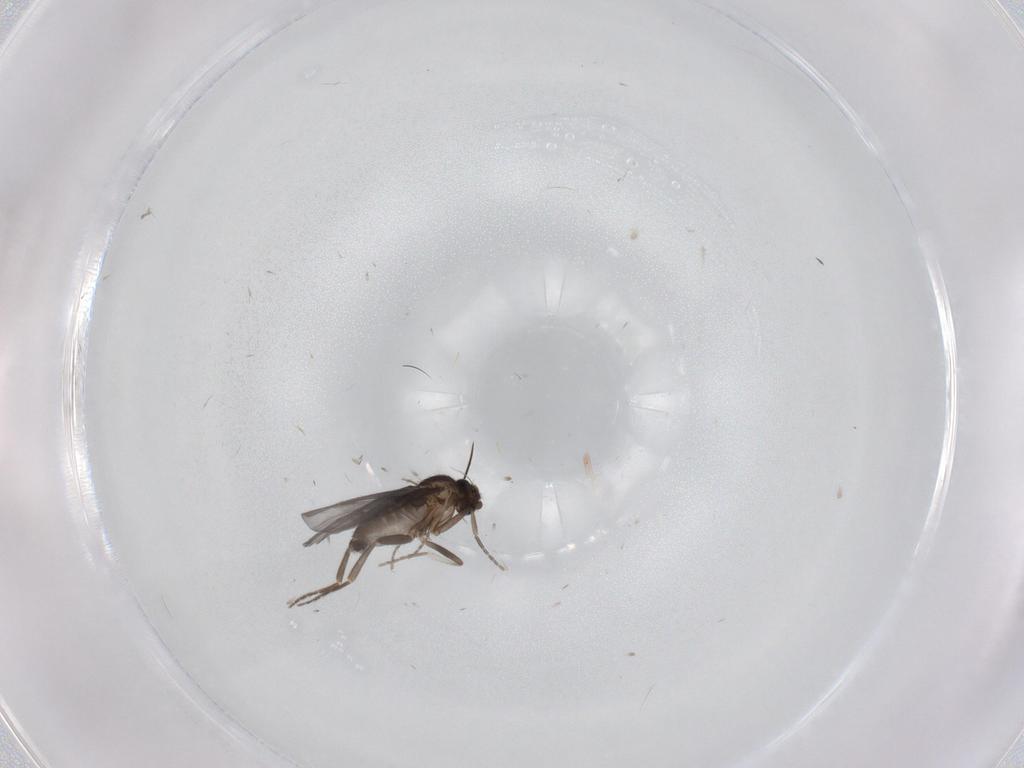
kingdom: Animalia
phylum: Arthropoda
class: Insecta
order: Diptera
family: Phoridae
